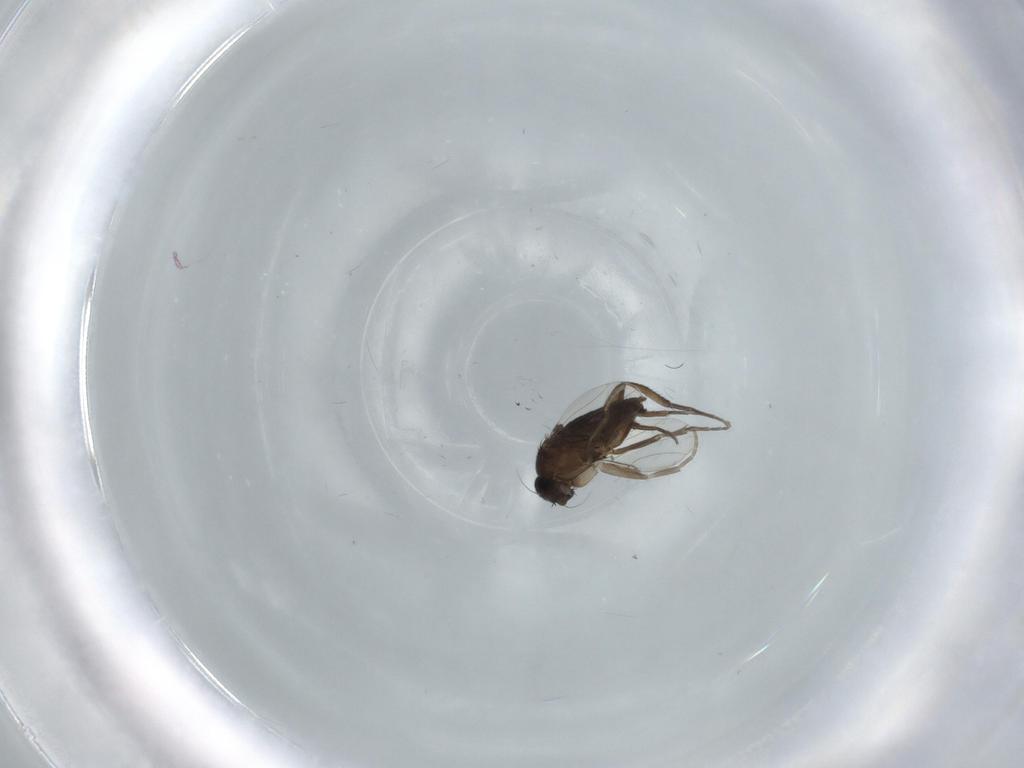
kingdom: Animalia
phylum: Arthropoda
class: Insecta
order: Diptera
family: Phoridae
